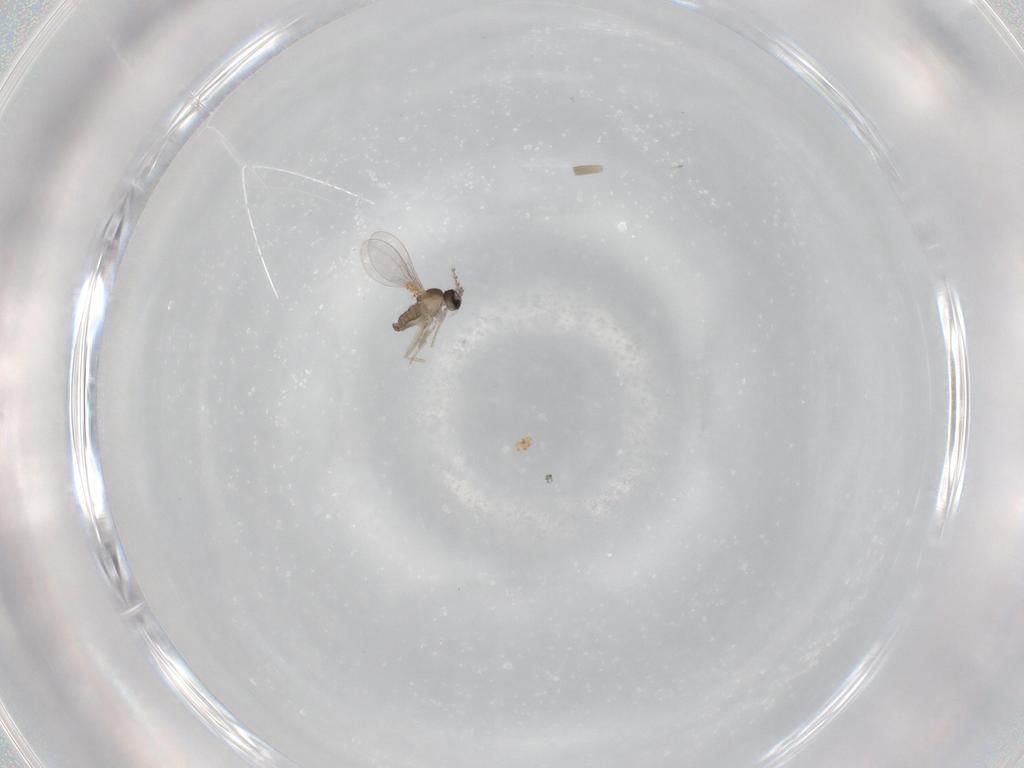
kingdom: Animalia
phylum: Arthropoda
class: Insecta
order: Diptera
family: Cecidomyiidae
